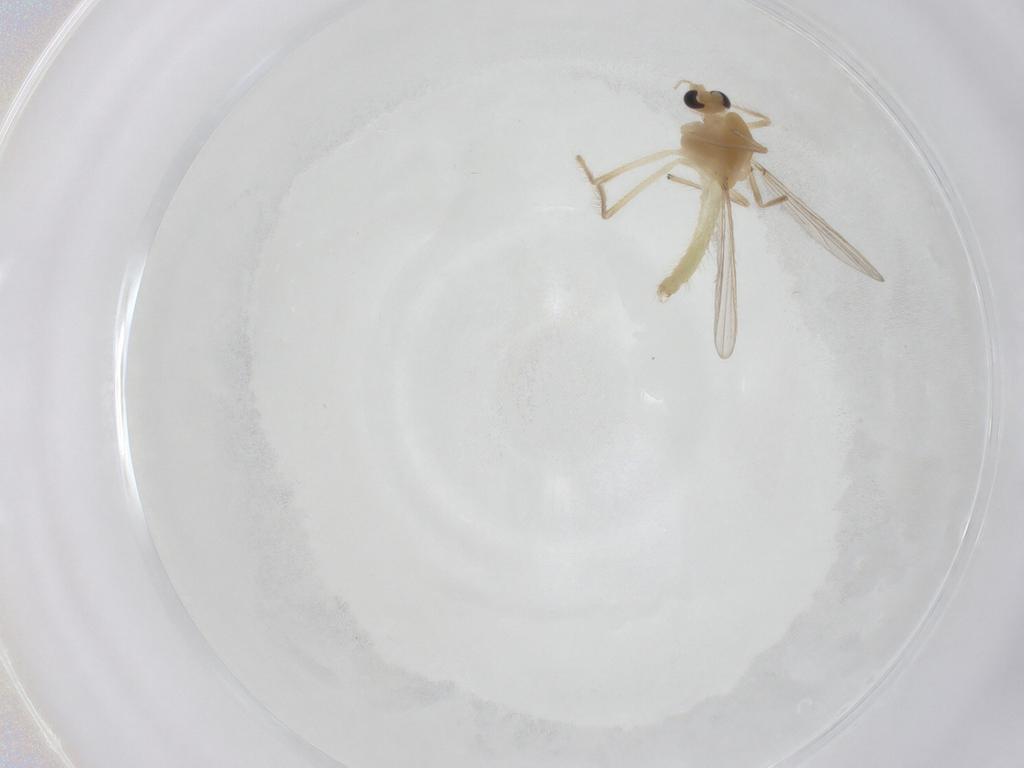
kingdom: Animalia
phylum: Arthropoda
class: Insecta
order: Diptera
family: Chironomidae
